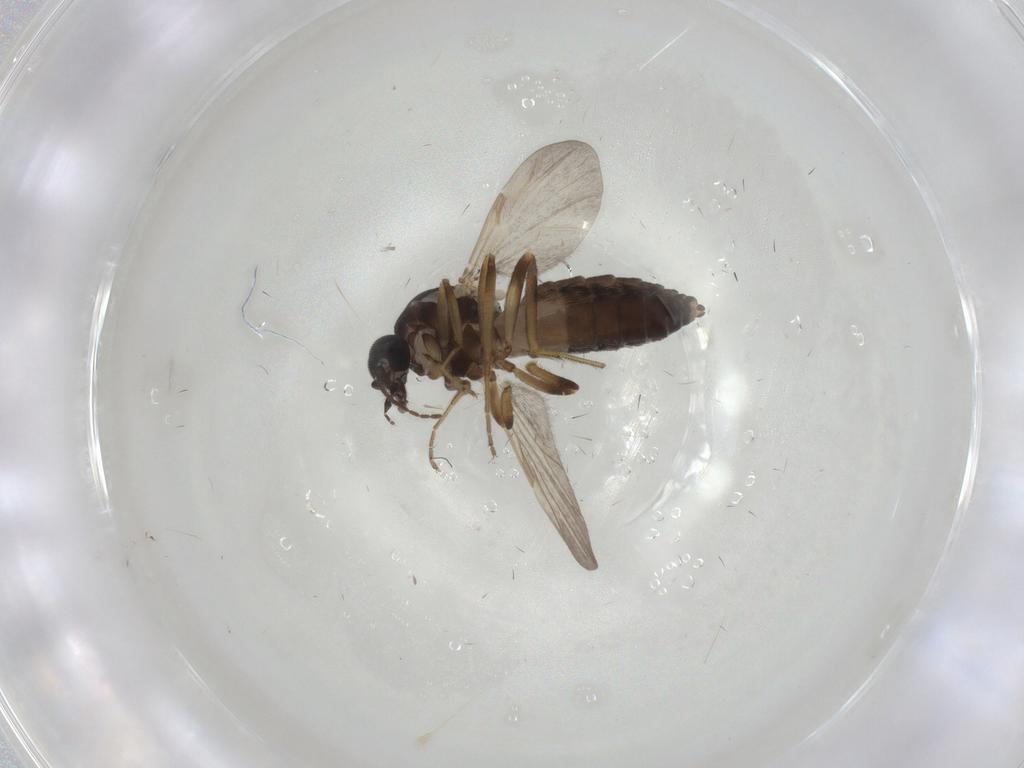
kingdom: Animalia
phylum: Arthropoda
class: Insecta
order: Diptera
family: Ceratopogonidae
